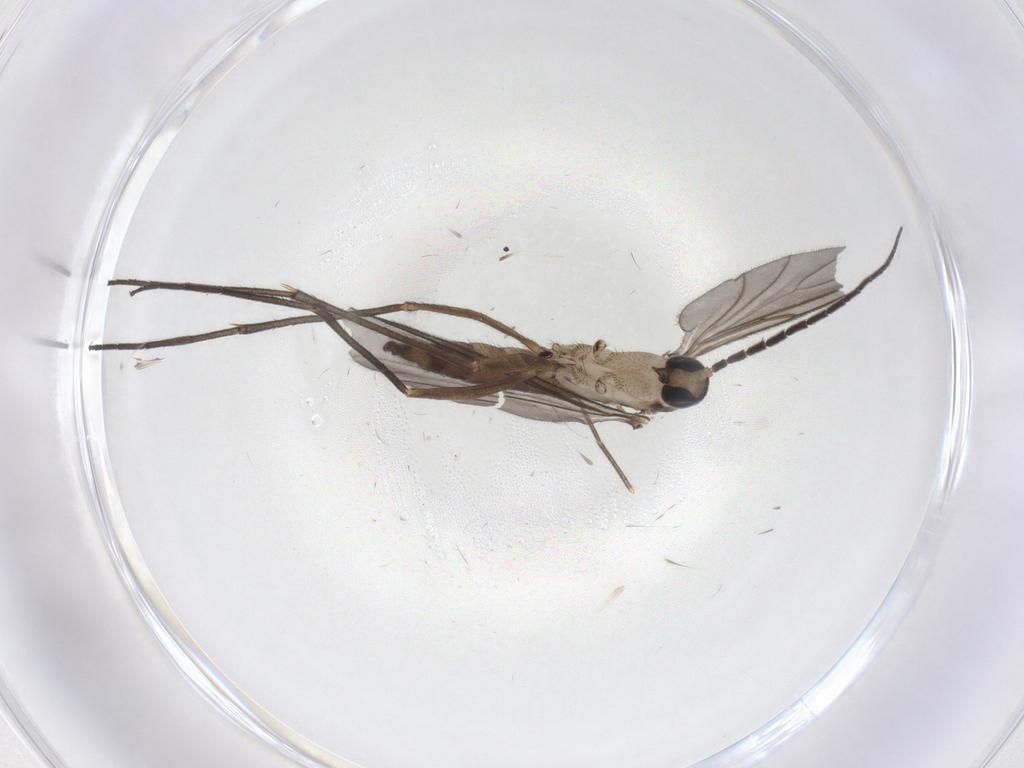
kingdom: Animalia
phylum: Arthropoda
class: Insecta
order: Diptera
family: Sciaridae
